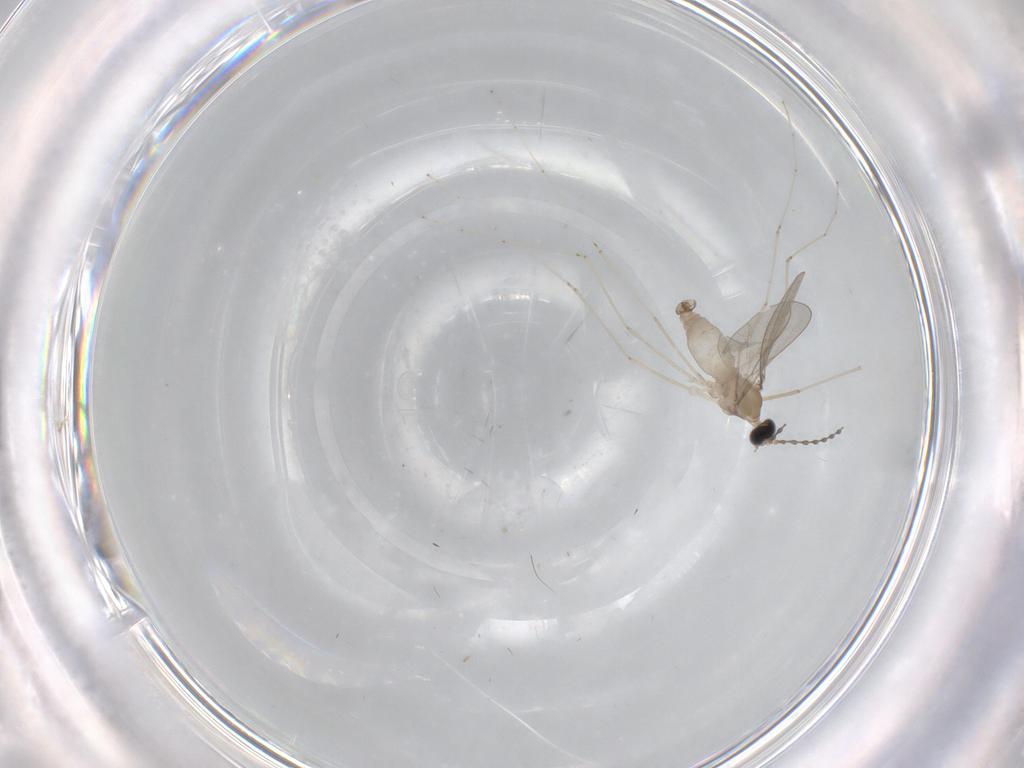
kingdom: Animalia
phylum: Arthropoda
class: Insecta
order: Diptera
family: Cecidomyiidae
